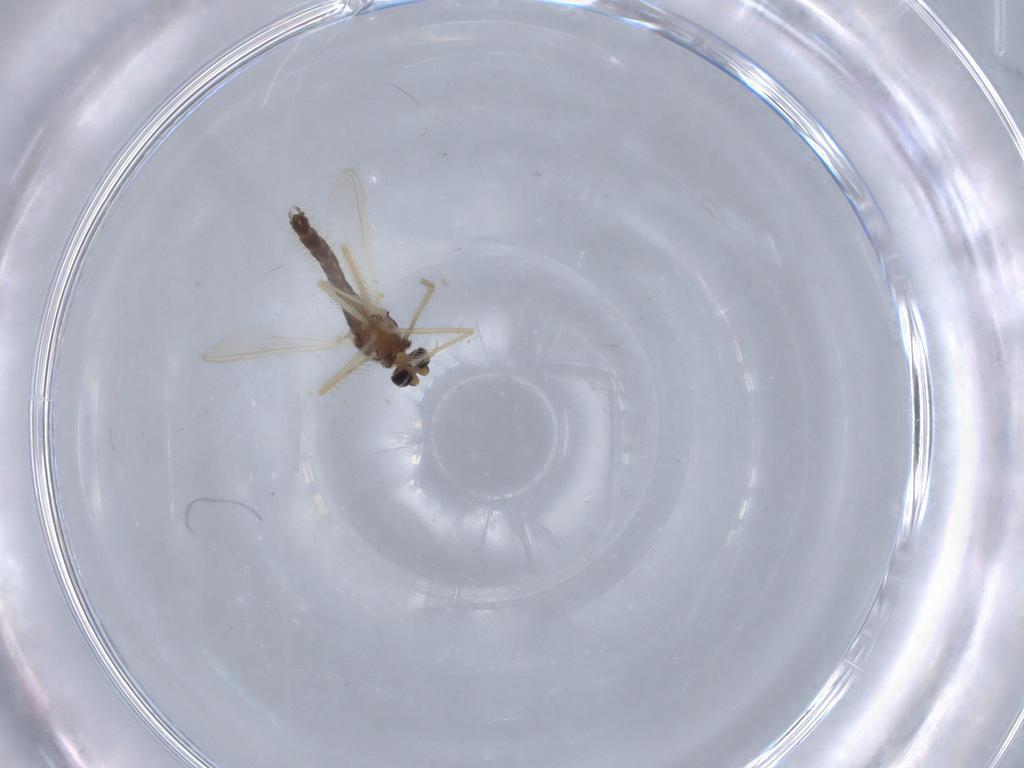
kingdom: Animalia
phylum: Arthropoda
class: Insecta
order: Diptera
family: Chironomidae
